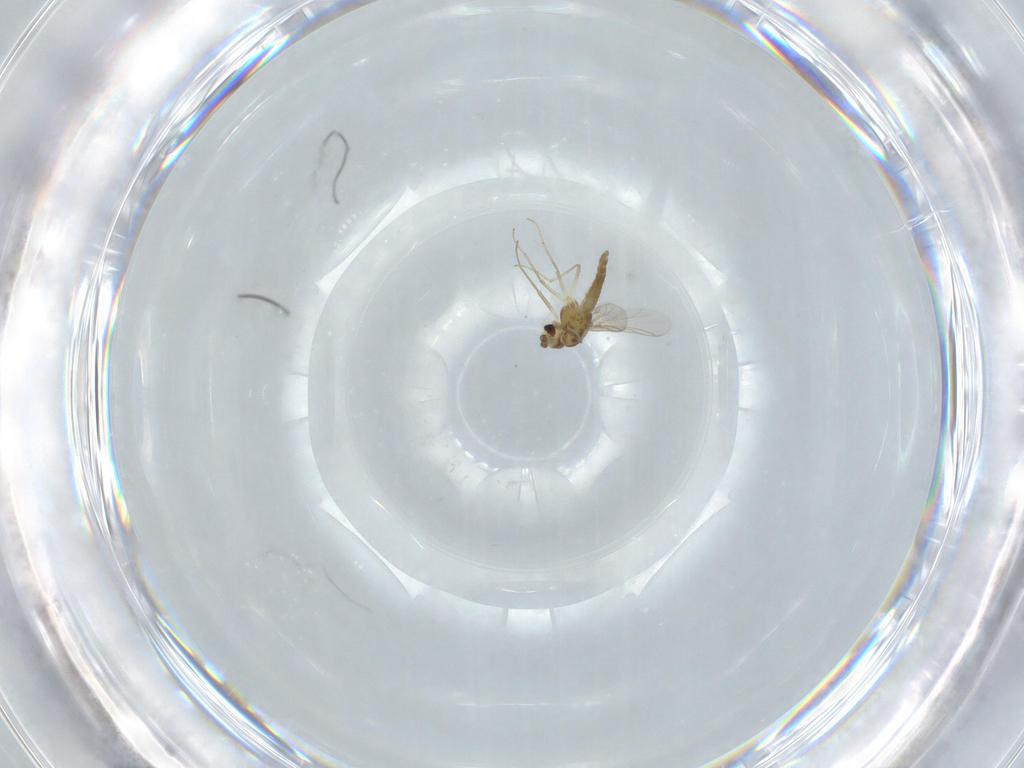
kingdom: Animalia
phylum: Arthropoda
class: Insecta
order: Diptera
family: Chironomidae
